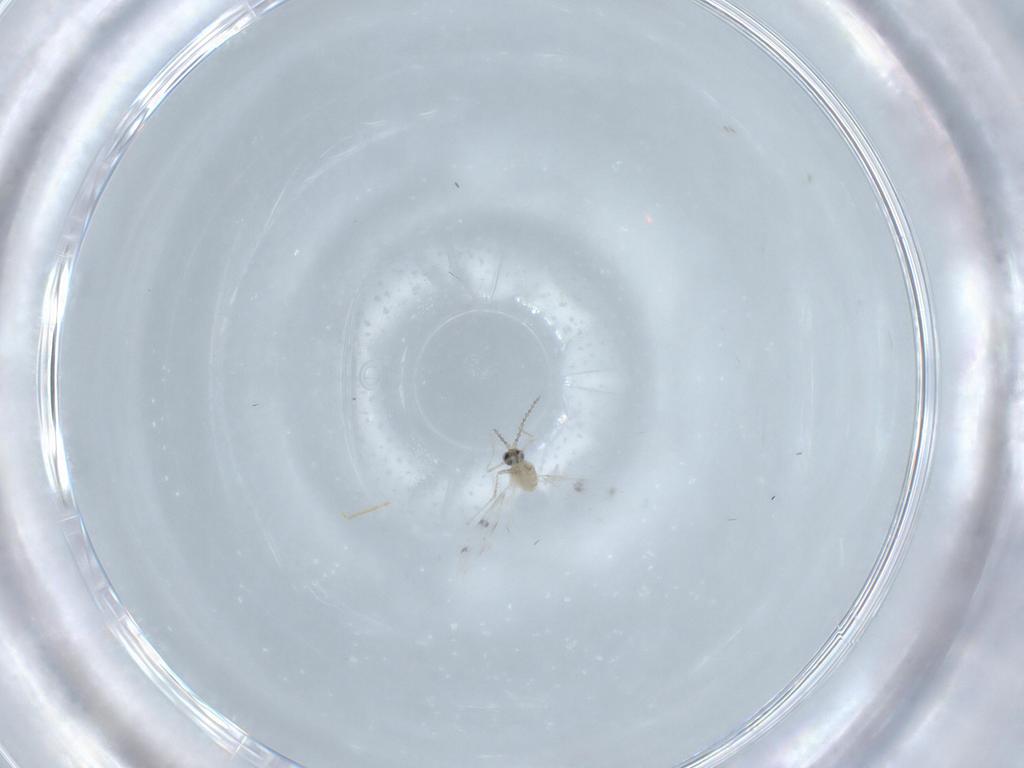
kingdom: Animalia
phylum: Arthropoda
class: Insecta
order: Diptera
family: Cecidomyiidae
